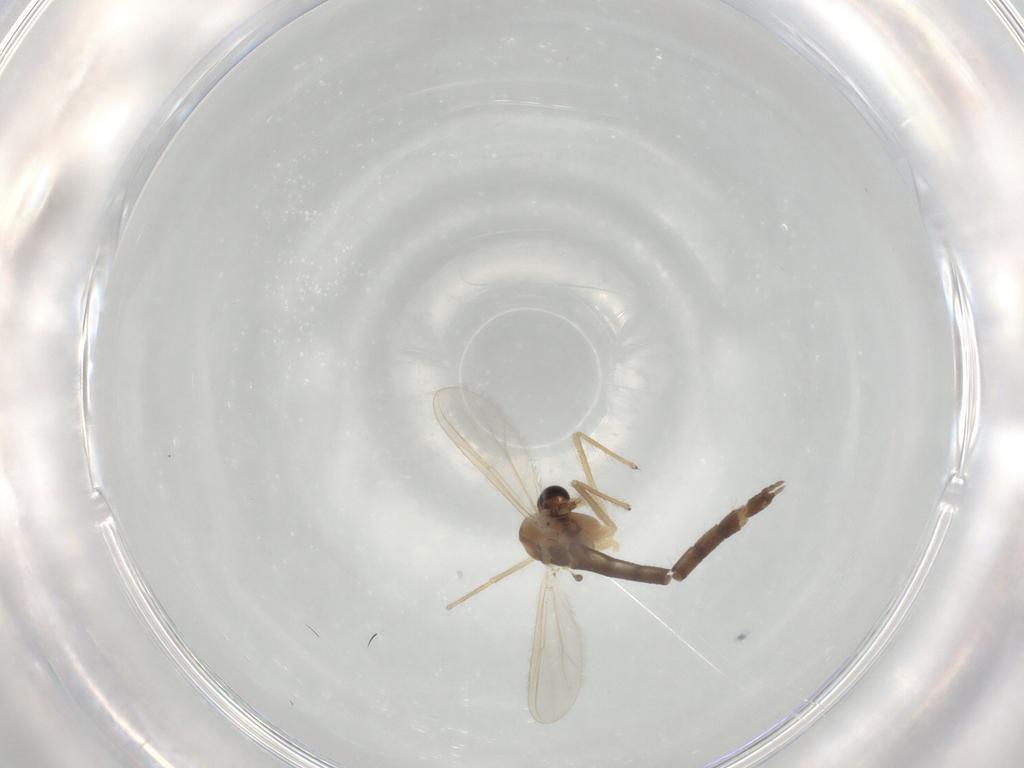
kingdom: Animalia
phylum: Arthropoda
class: Insecta
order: Diptera
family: Chironomidae
